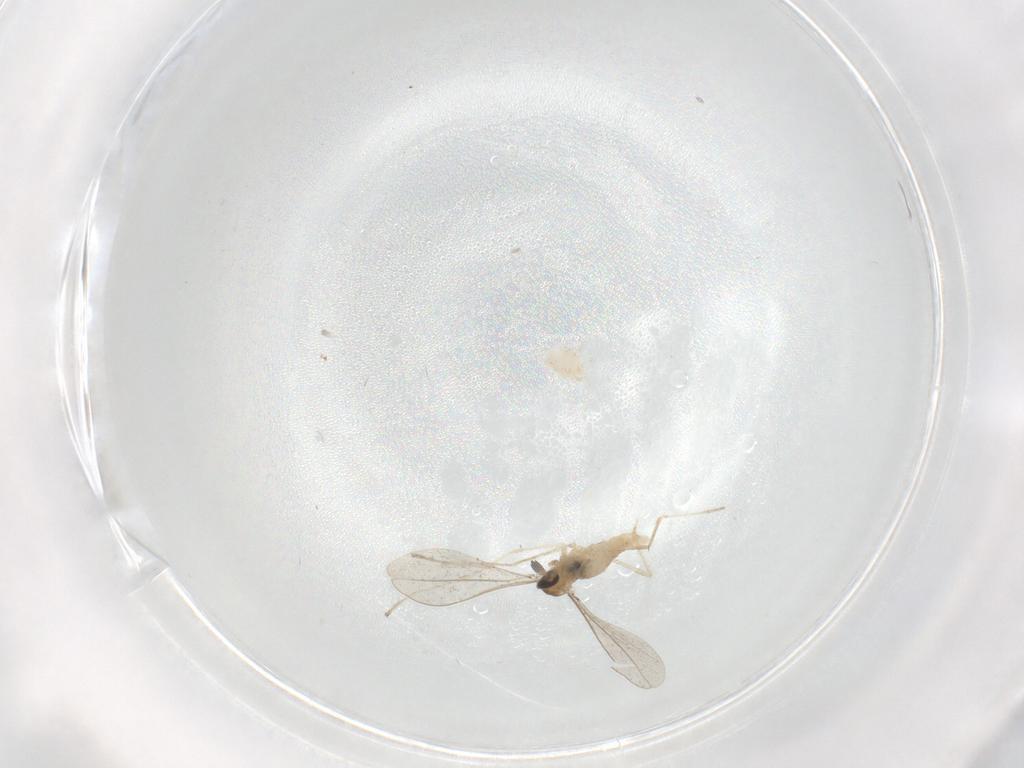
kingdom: Animalia
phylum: Arthropoda
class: Insecta
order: Diptera
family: Cecidomyiidae
